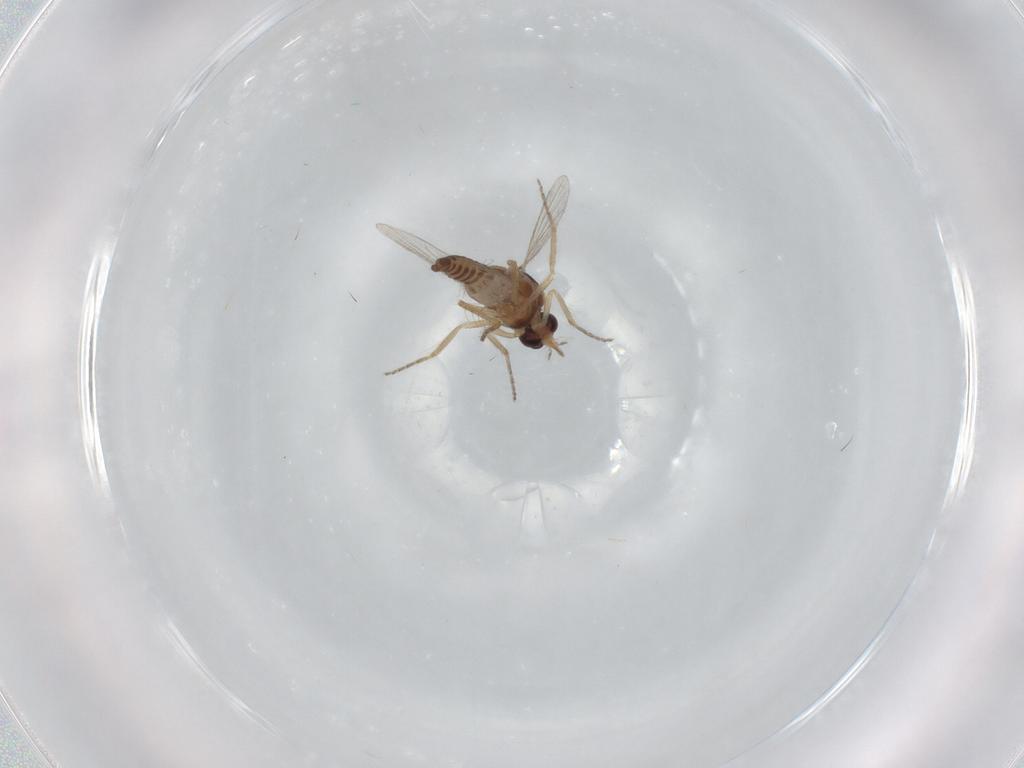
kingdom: Animalia
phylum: Arthropoda
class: Insecta
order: Diptera
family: Ceratopogonidae
